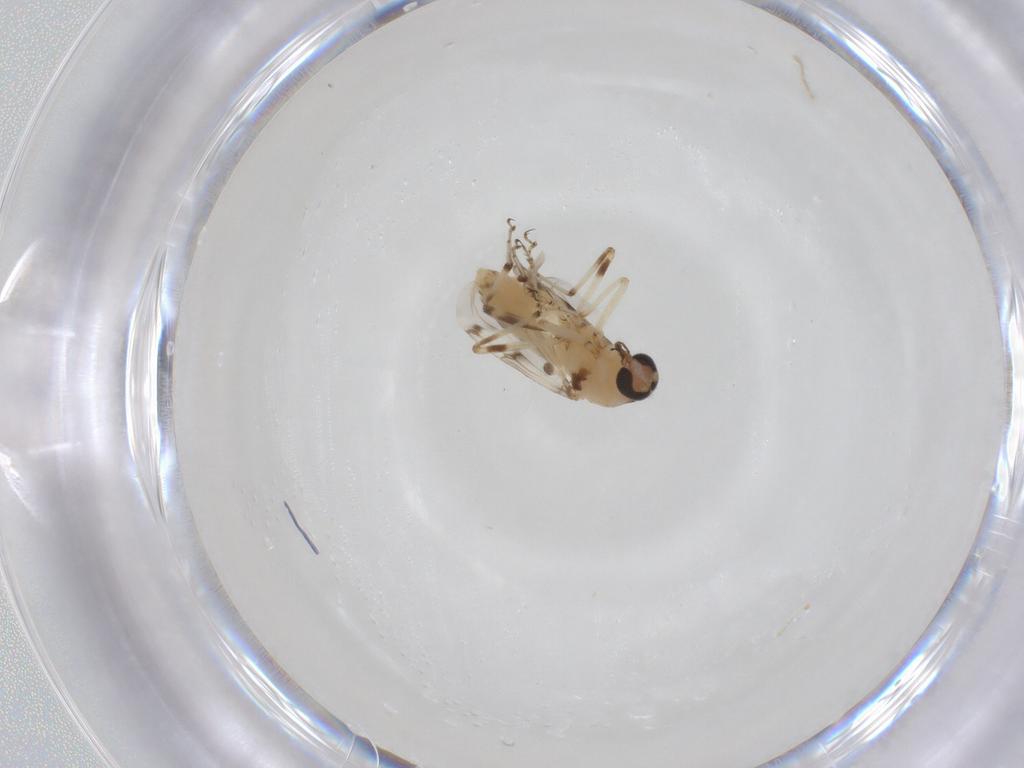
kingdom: Animalia
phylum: Arthropoda
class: Insecta
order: Diptera
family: Ceratopogonidae
